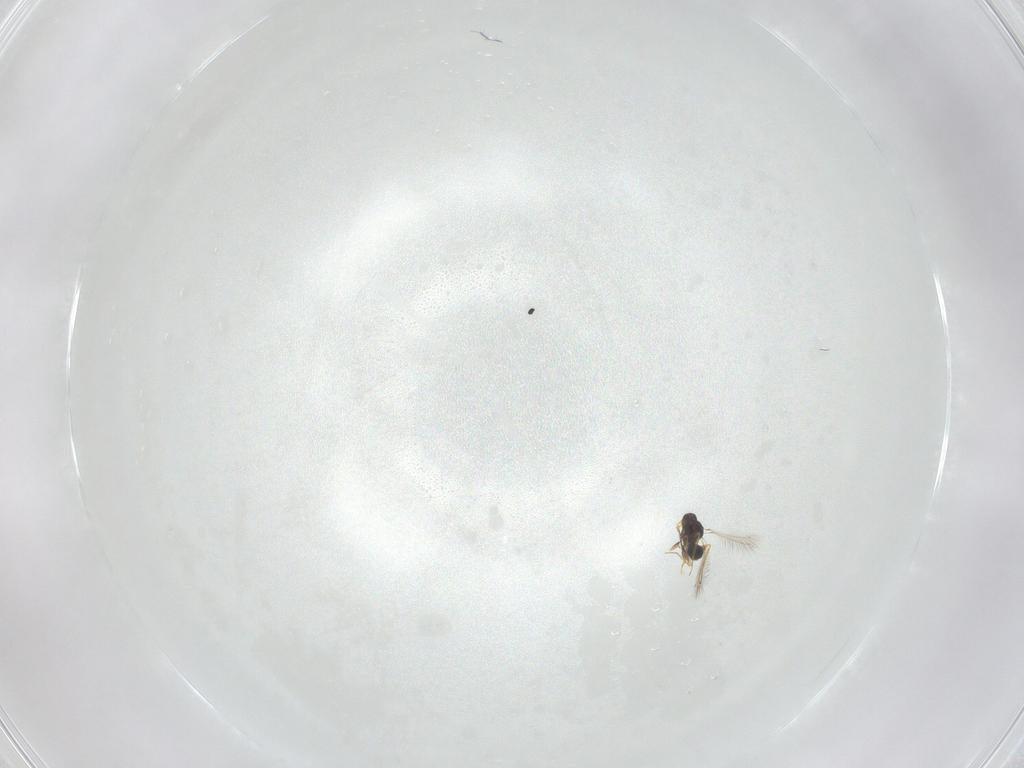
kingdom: Animalia
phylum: Arthropoda
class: Insecta
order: Hymenoptera
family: Mymaridae
